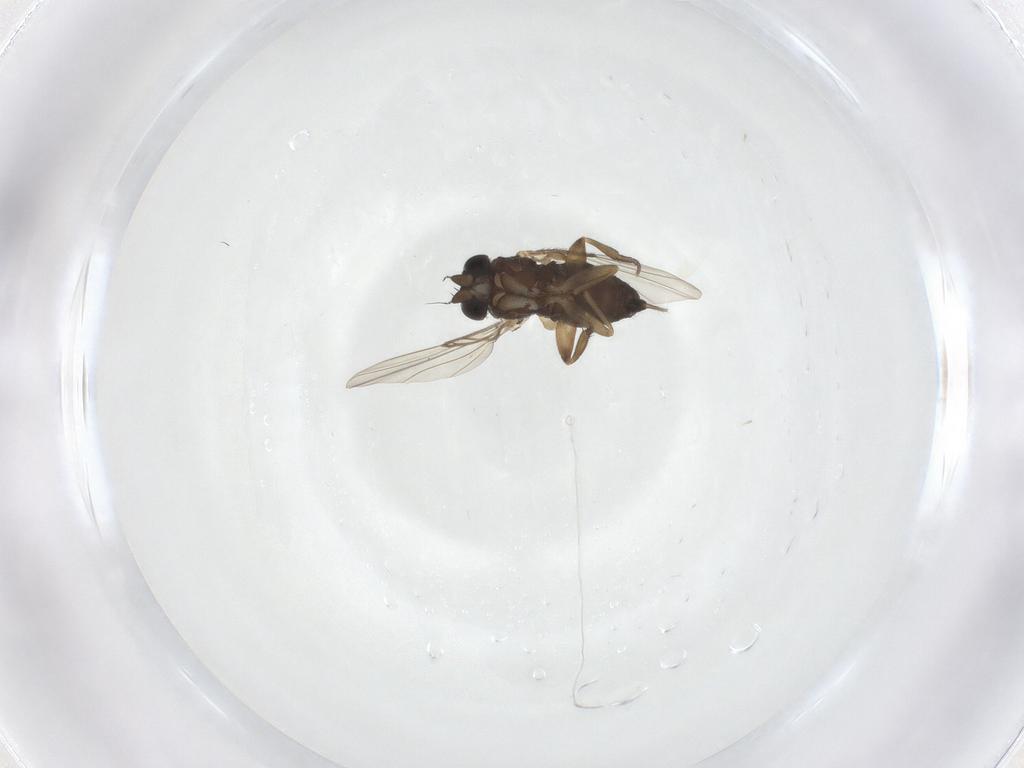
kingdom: Animalia
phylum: Arthropoda
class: Insecta
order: Diptera
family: Phoridae
